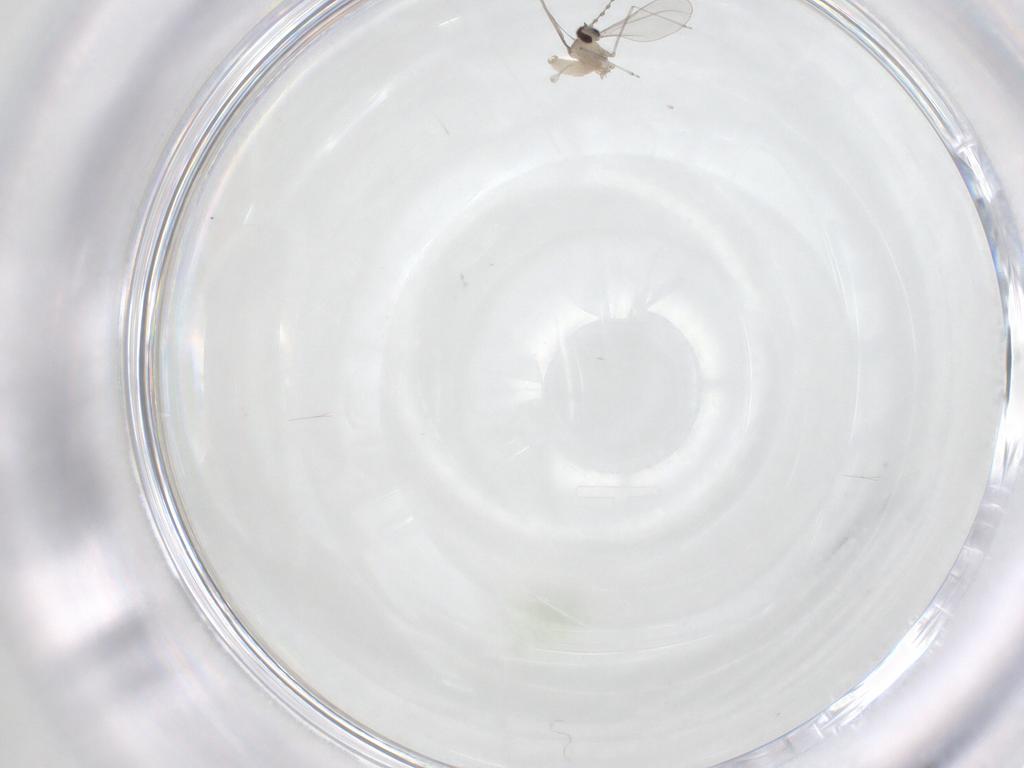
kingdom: Animalia
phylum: Arthropoda
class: Insecta
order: Diptera
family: Cecidomyiidae
